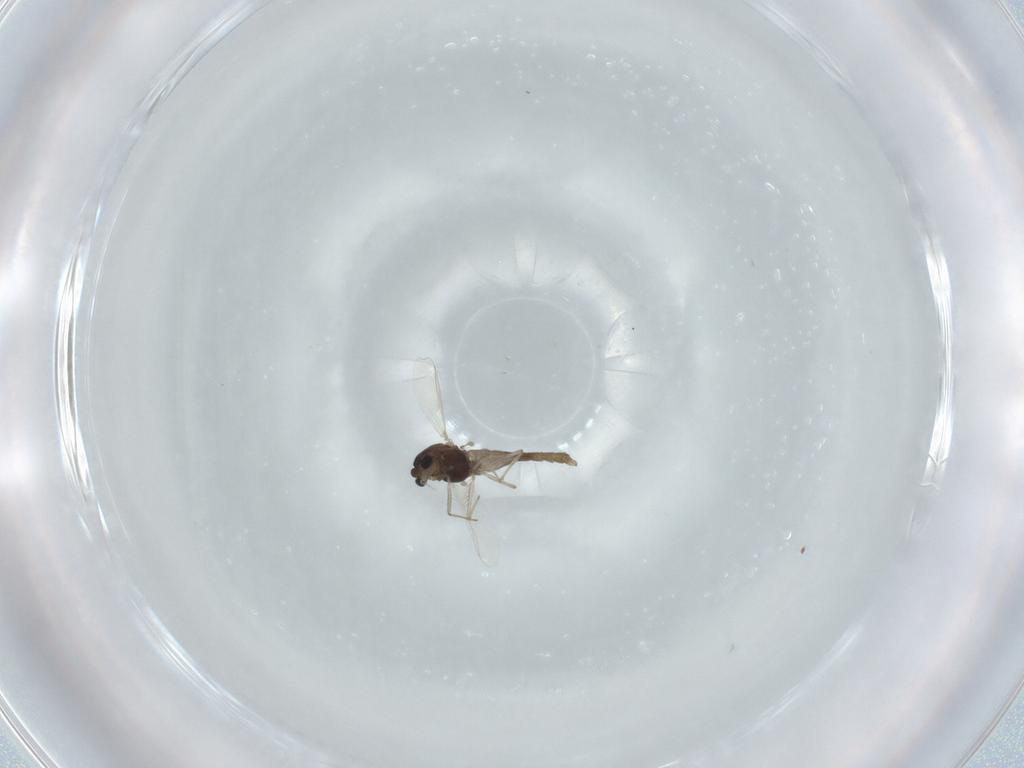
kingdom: Animalia
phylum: Arthropoda
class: Insecta
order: Diptera
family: Chironomidae
